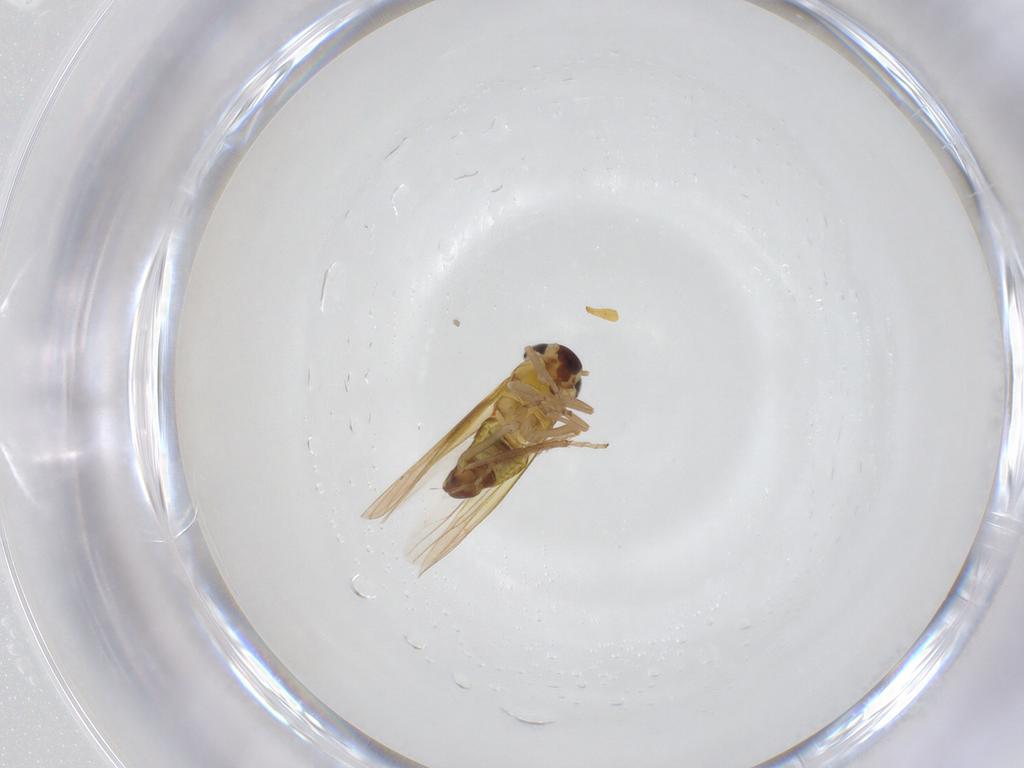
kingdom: Animalia
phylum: Arthropoda
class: Insecta
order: Hemiptera
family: Cicadellidae
